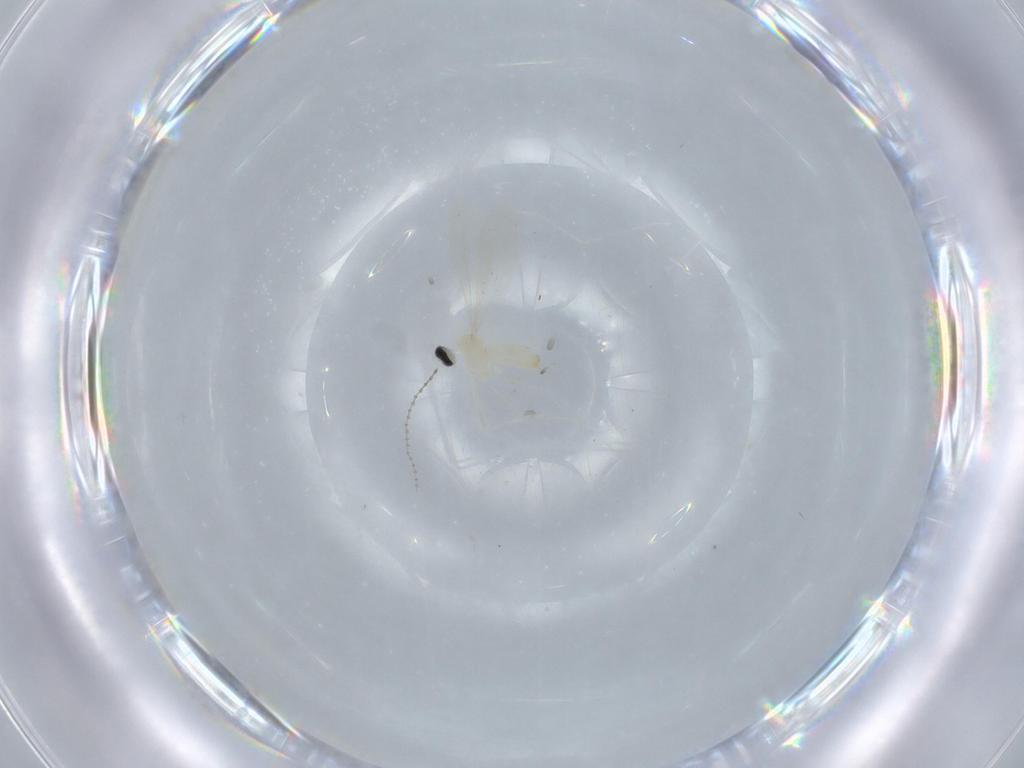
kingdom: Animalia
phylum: Arthropoda
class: Insecta
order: Diptera
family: Cecidomyiidae
